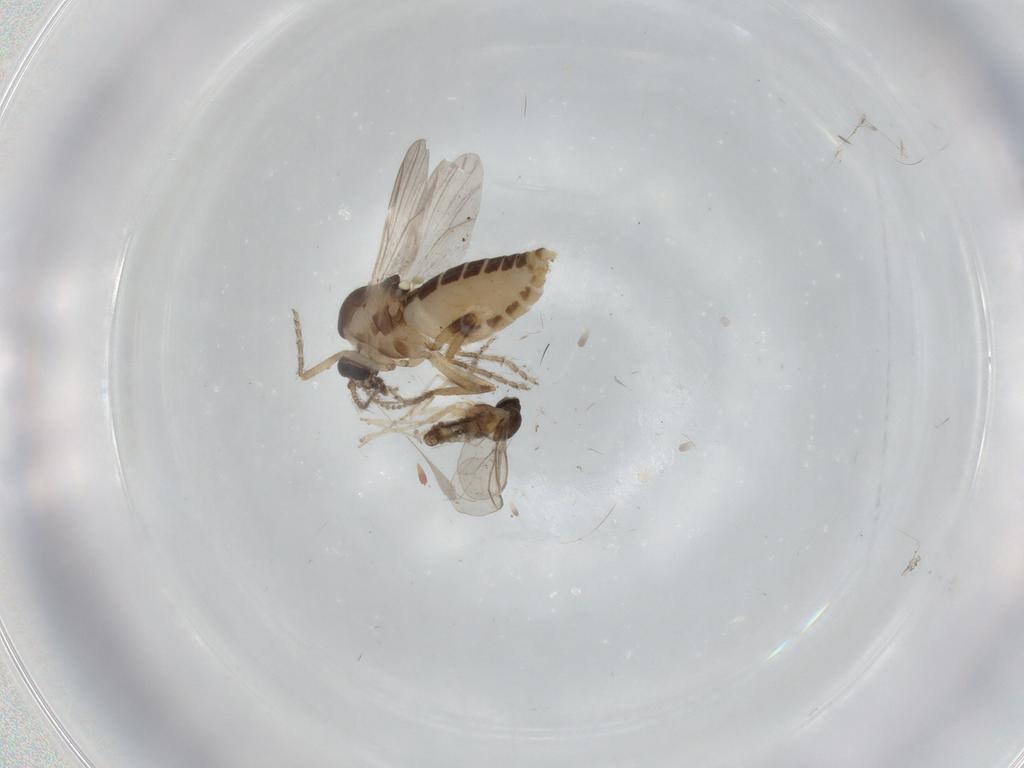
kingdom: Animalia
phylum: Arthropoda
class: Insecta
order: Diptera
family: Ceratopogonidae
